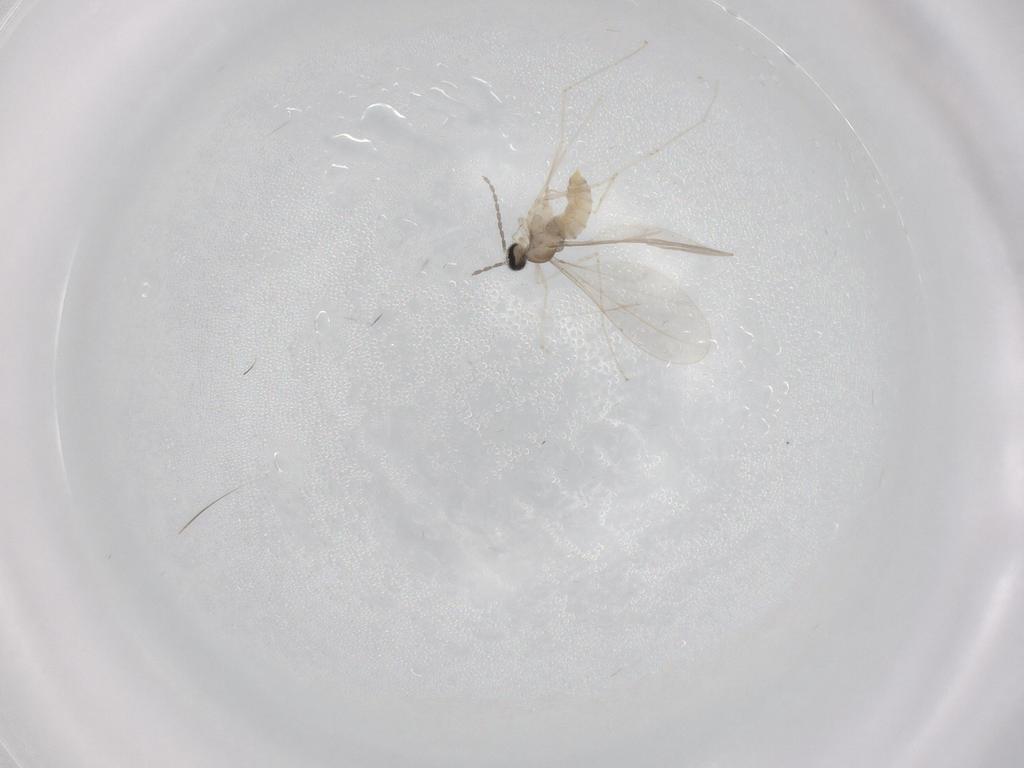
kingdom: Animalia
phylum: Arthropoda
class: Insecta
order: Diptera
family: Cecidomyiidae
